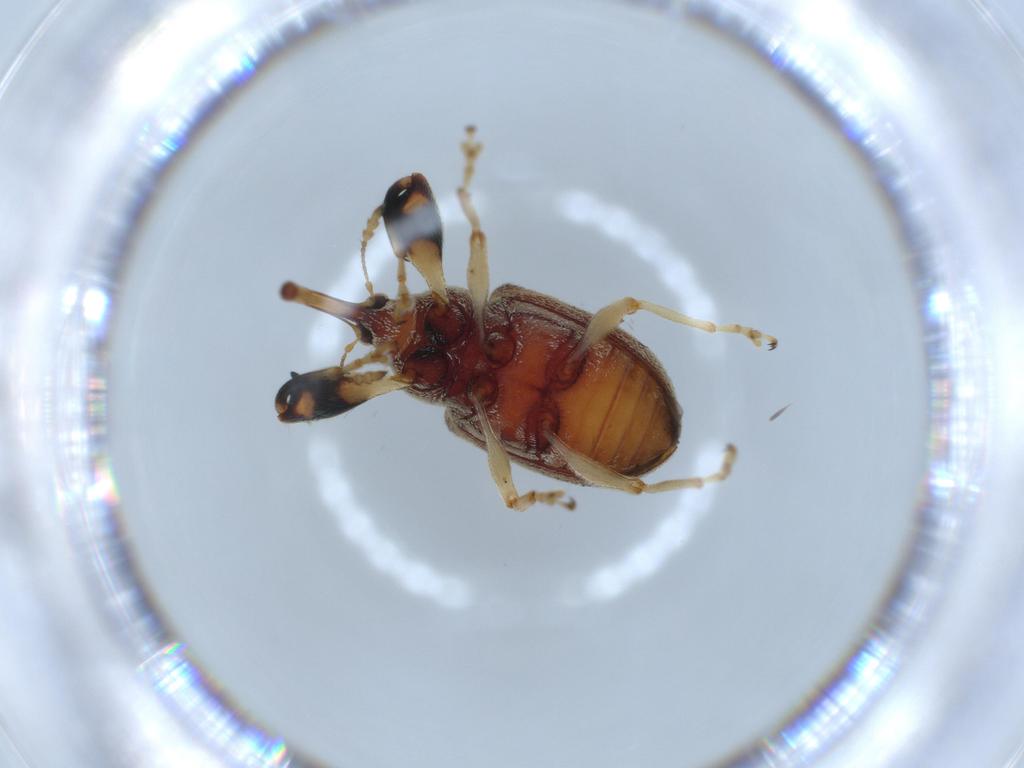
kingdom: Animalia
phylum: Arthropoda
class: Insecta
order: Coleoptera
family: Curculionidae
